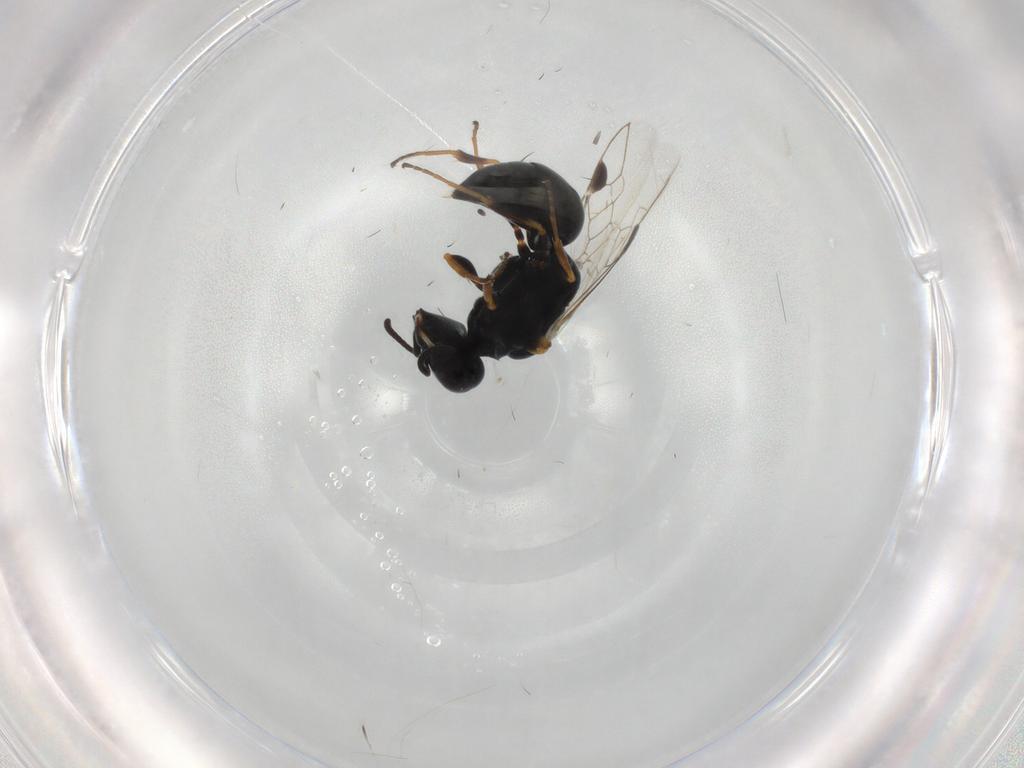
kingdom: Animalia
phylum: Arthropoda
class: Insecta
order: Hymenoptera
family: Crabronidae
